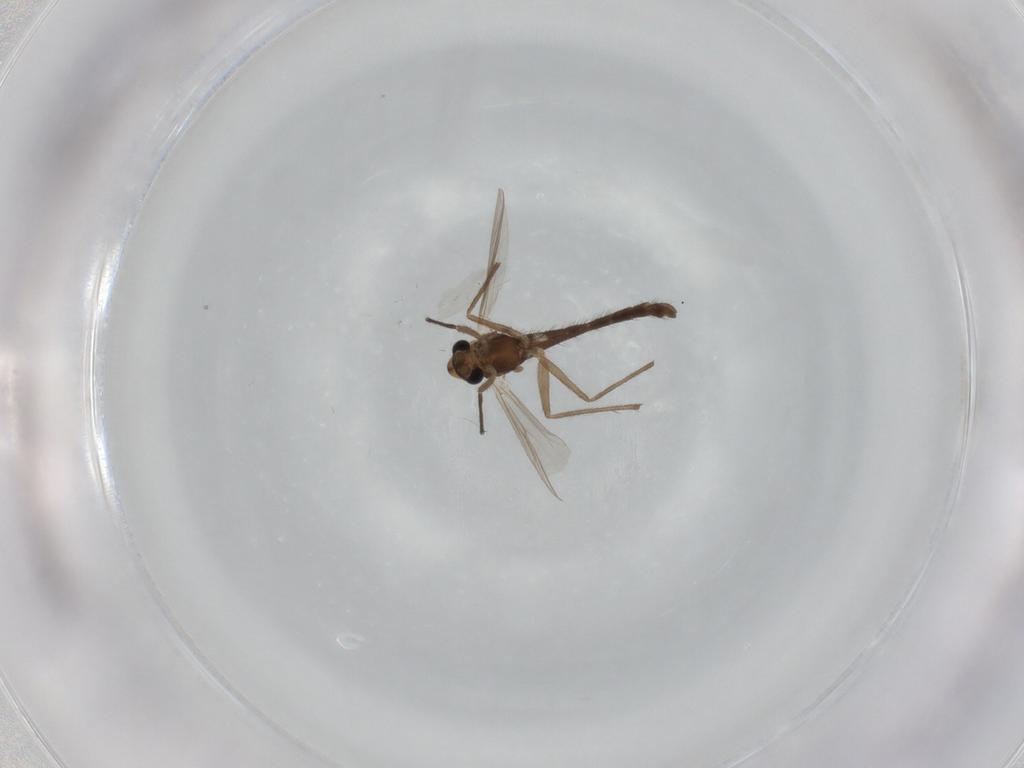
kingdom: Animalia
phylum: Arthropoda
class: Insecta
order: Diptera
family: Chironomidae
